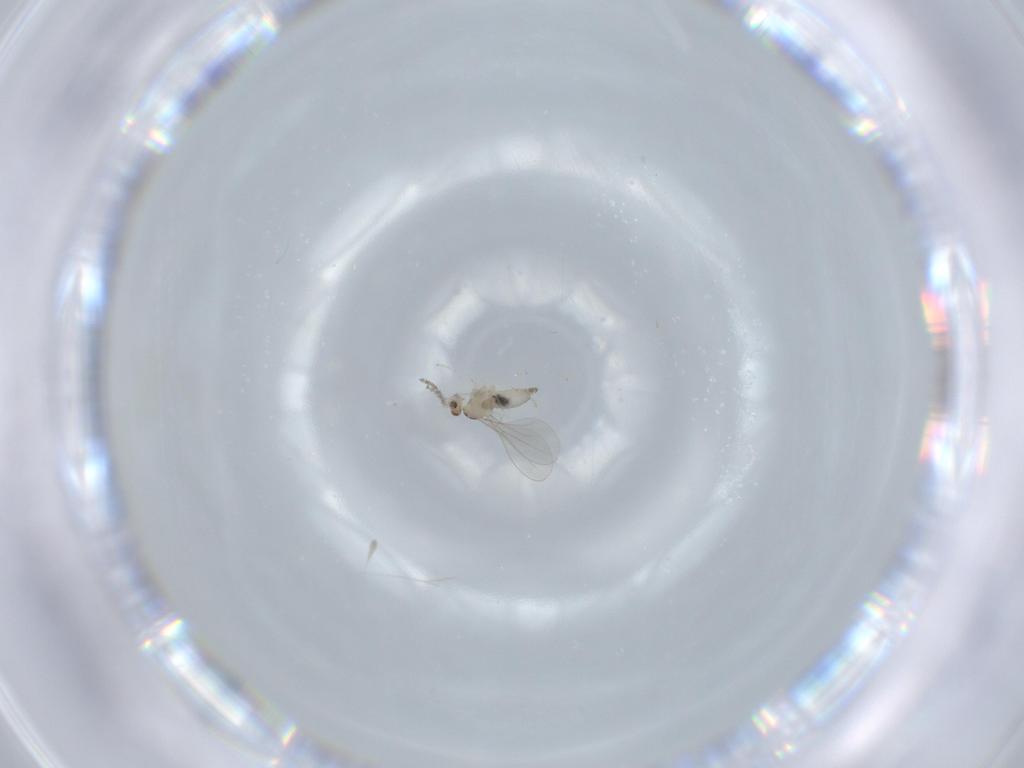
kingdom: Animalia
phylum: Arthropoda
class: Insecta
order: Diptera
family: Cecidomyiidae
